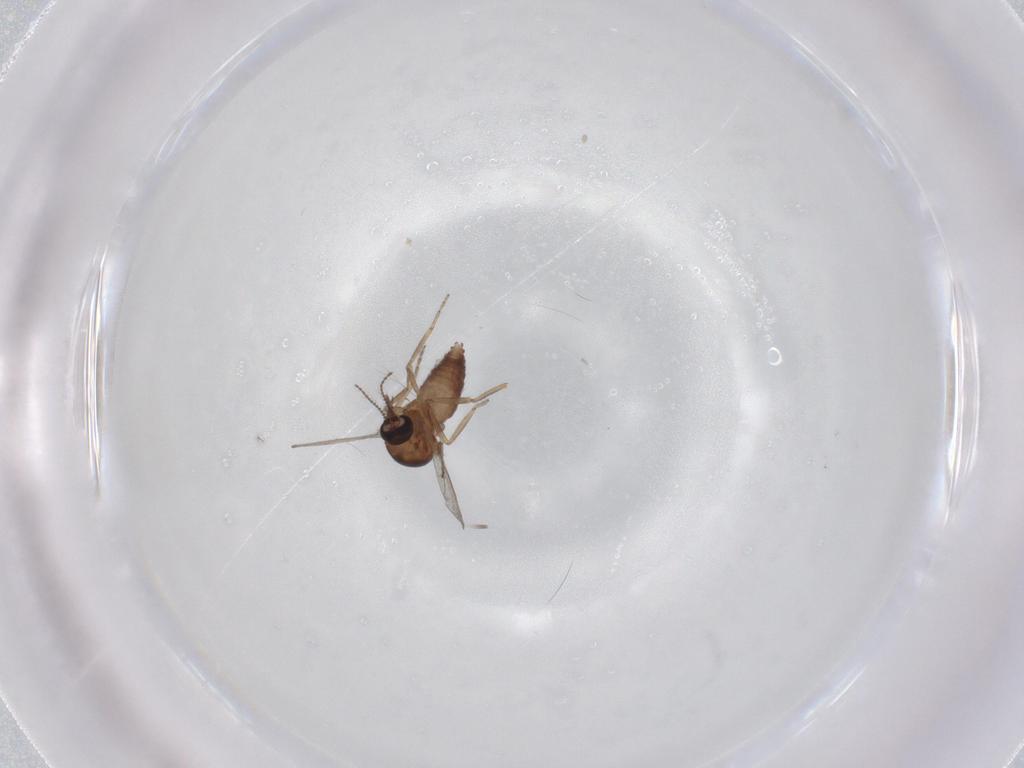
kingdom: Animalia
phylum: Arthropoda
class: Insecta
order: Diptera
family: Ceratopogonidae
